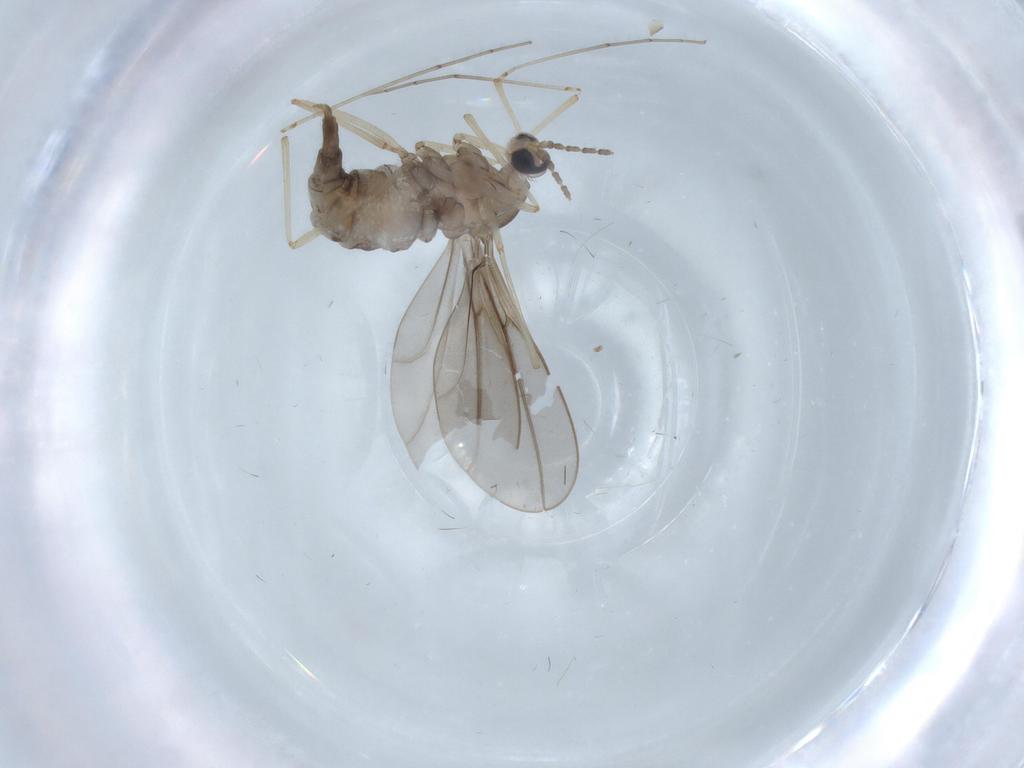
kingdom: Animalia
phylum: Arthropoda
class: Insecta
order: Diptera
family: Cecidomyiidae
